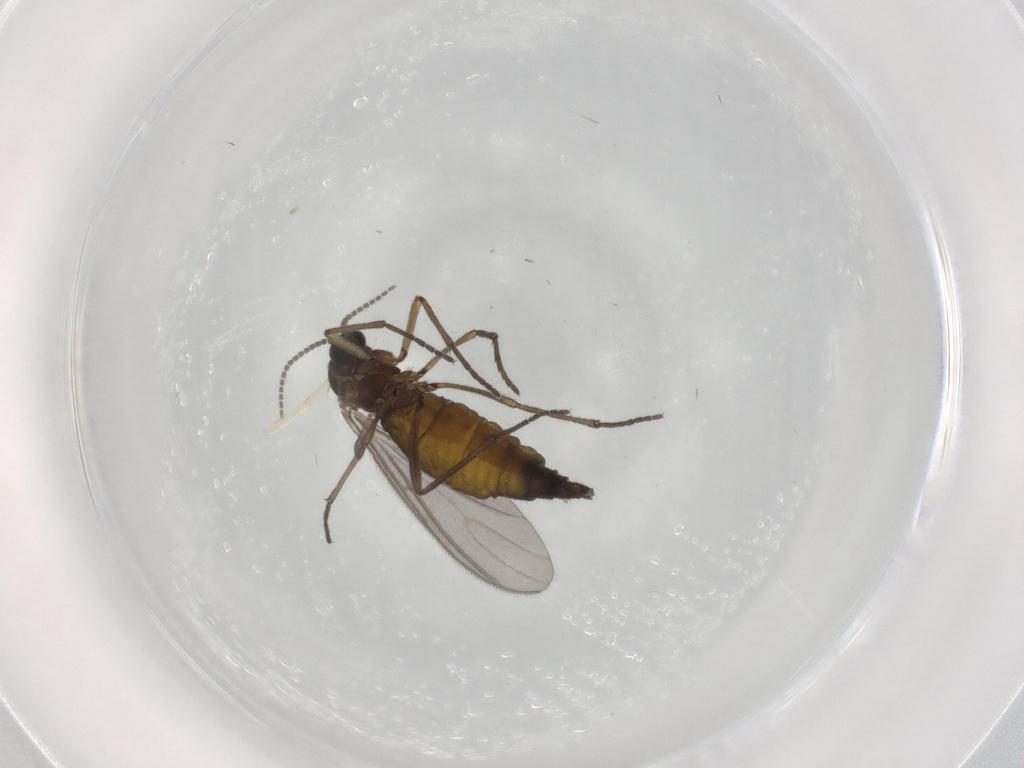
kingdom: Animalia
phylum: Arthropoda
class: Insecta
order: Diptera
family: Sciaridae
